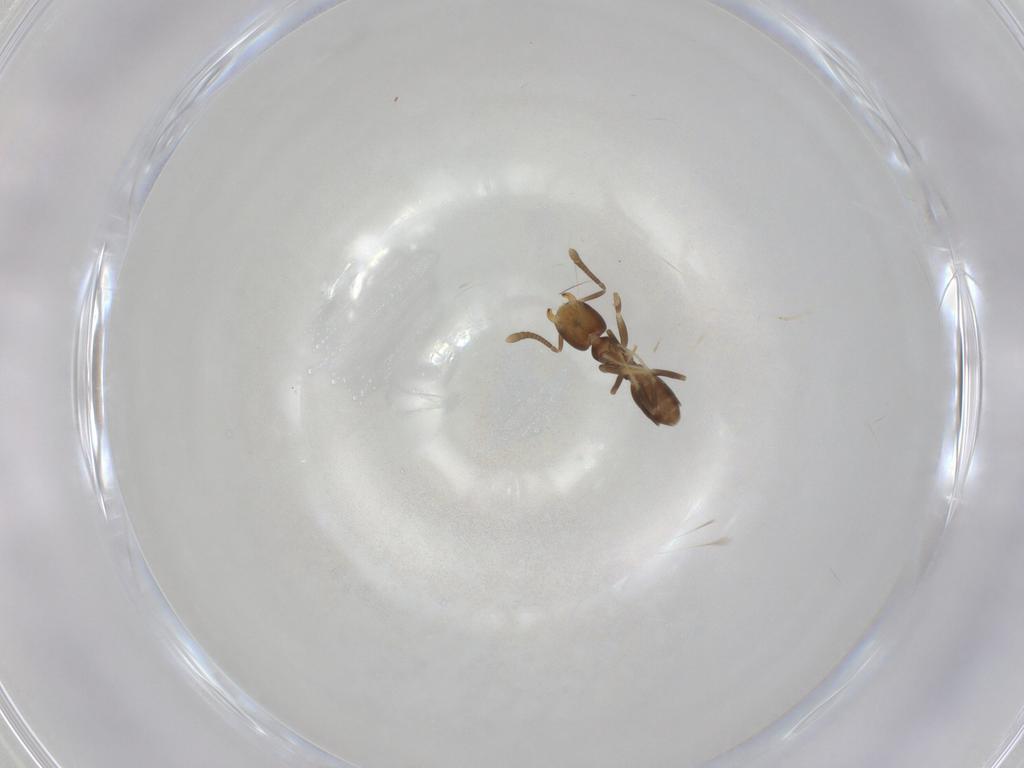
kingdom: Animalia
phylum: Arthropoda
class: Insecta
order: Hymenoptera
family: Formicidae
